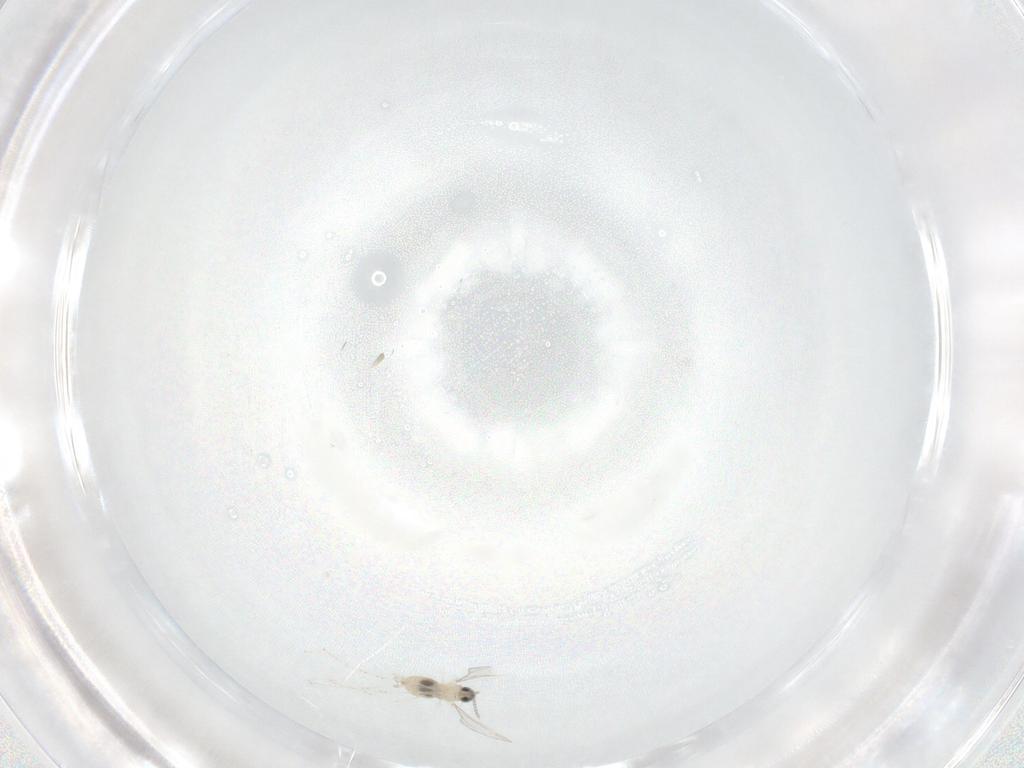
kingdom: Animalia
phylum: Arthropoda
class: Insecta
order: Diptera
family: Cecidomyiidae
